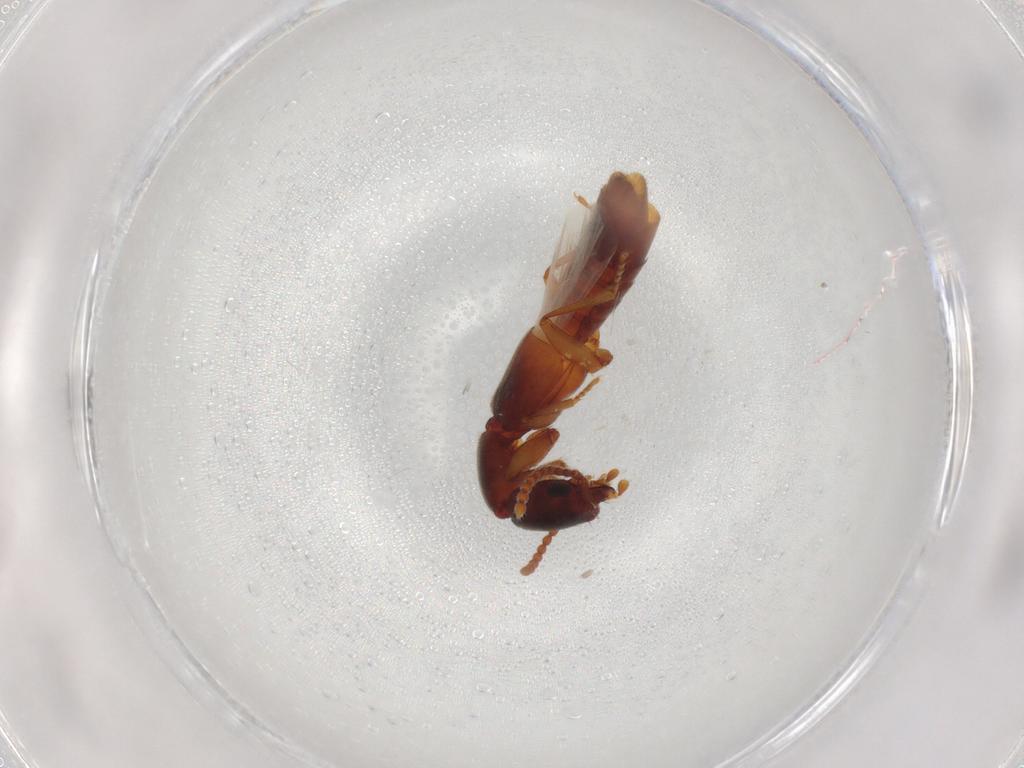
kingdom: Animalia
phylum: Arthropoda
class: Insecta
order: Coleoptera
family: Staphylinidae
